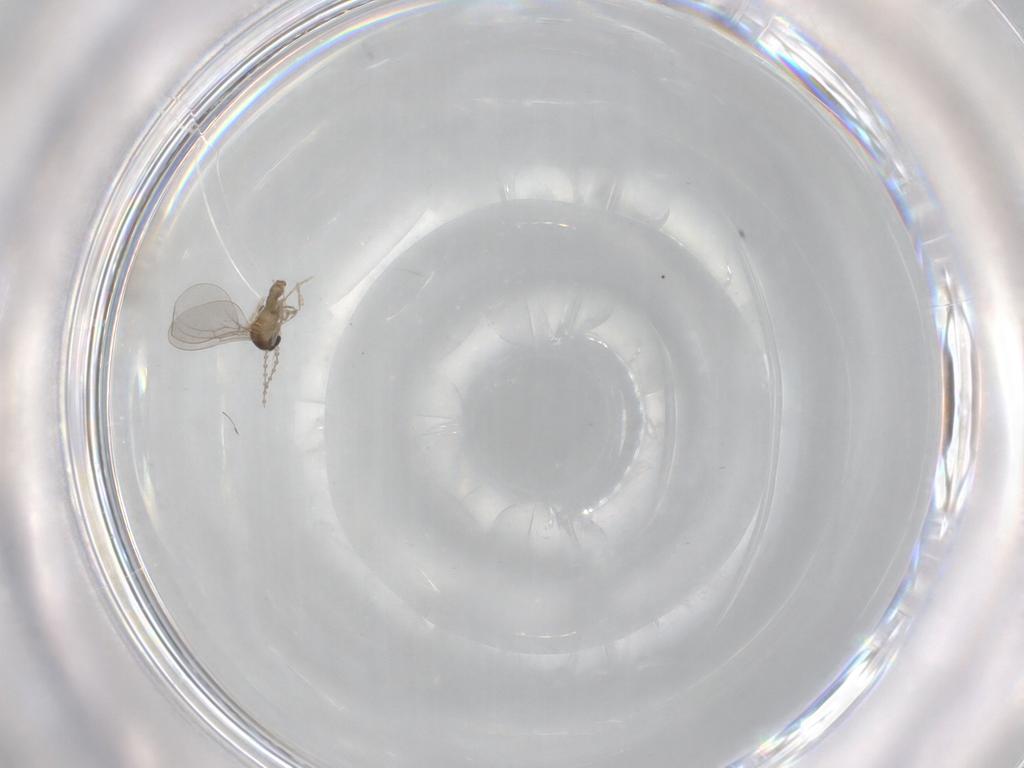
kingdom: Animalia
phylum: Arthropoda
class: Insecta
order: Diptera
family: Cecidomyiidae
